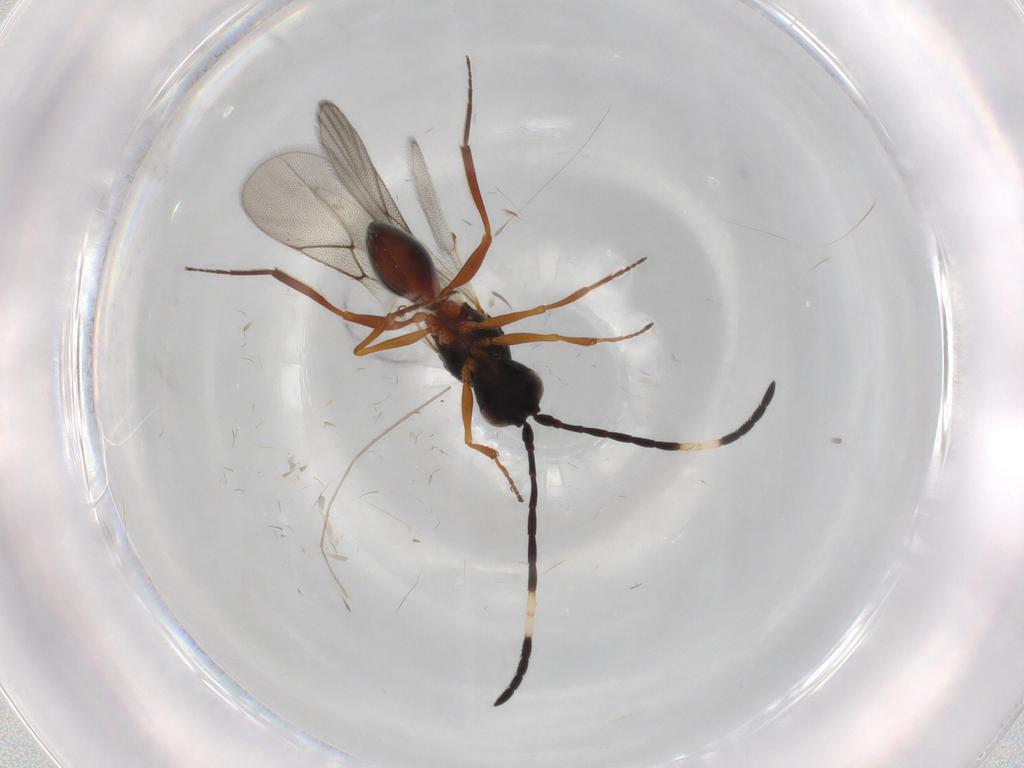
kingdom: Animalia
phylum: Arthropoda
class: Insecta
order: Hymenoptera
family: Figitidae
